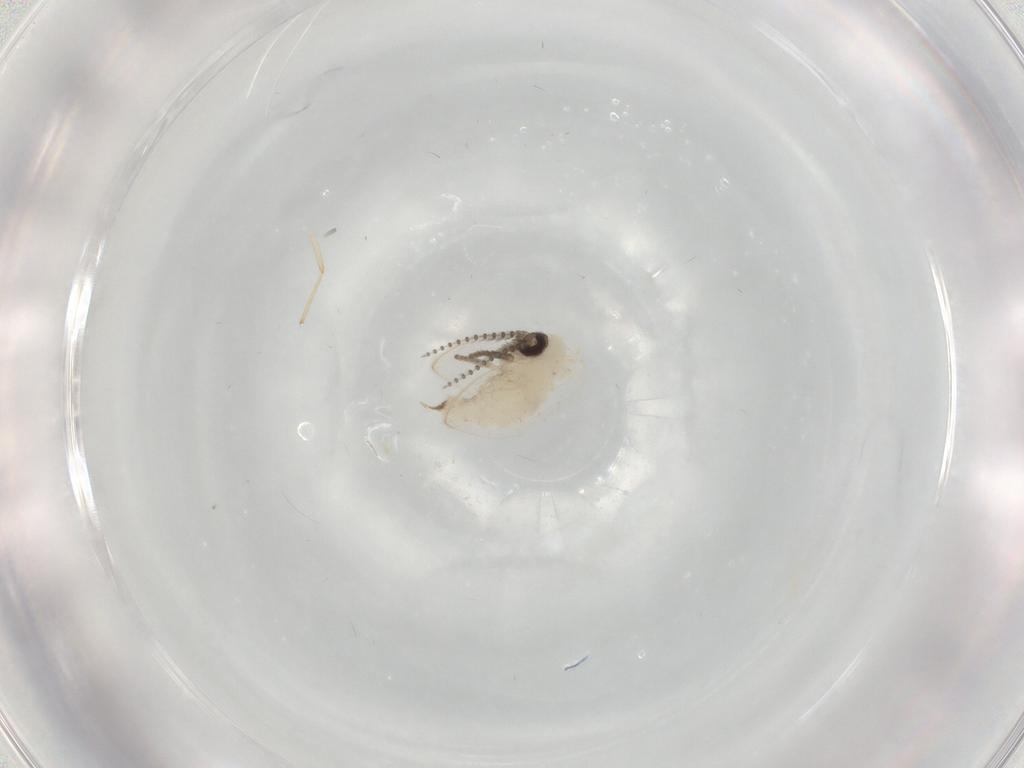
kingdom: Animalia
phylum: Arthropoda
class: Insecta
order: Diptera
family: Psychodidae
